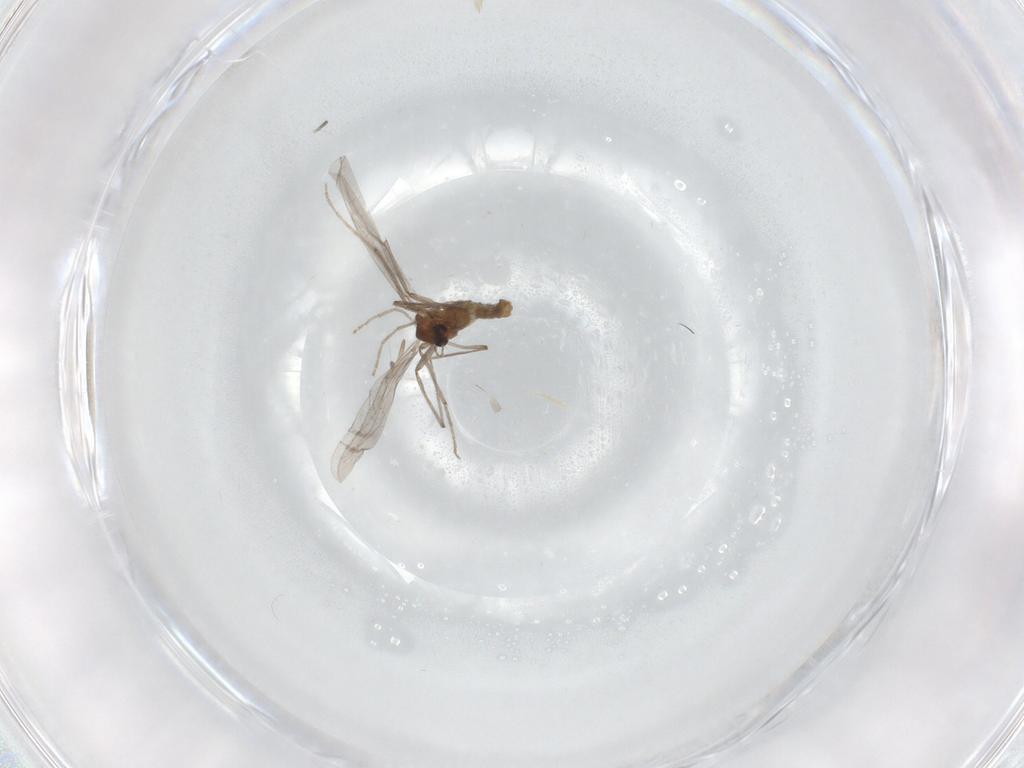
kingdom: Animalia
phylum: Arthropoda
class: Insecta
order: Diptera
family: Chironomidae
